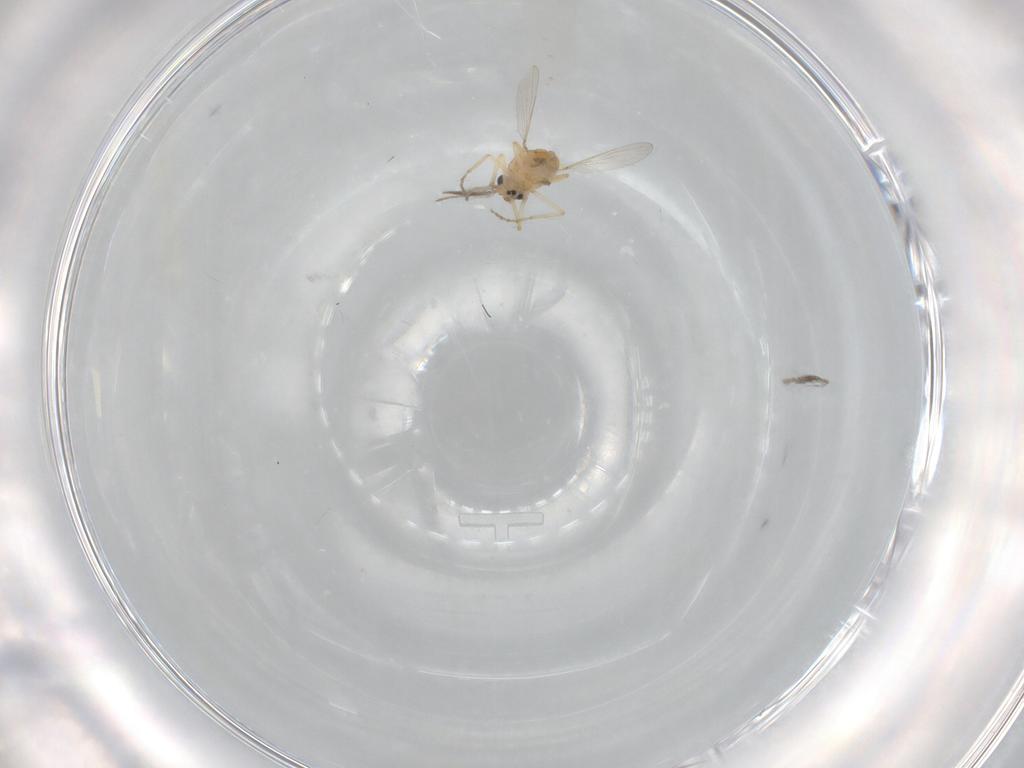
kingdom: Animalia
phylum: Arthropoda
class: Insecta
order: Diptera
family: Ceratopogonidae
